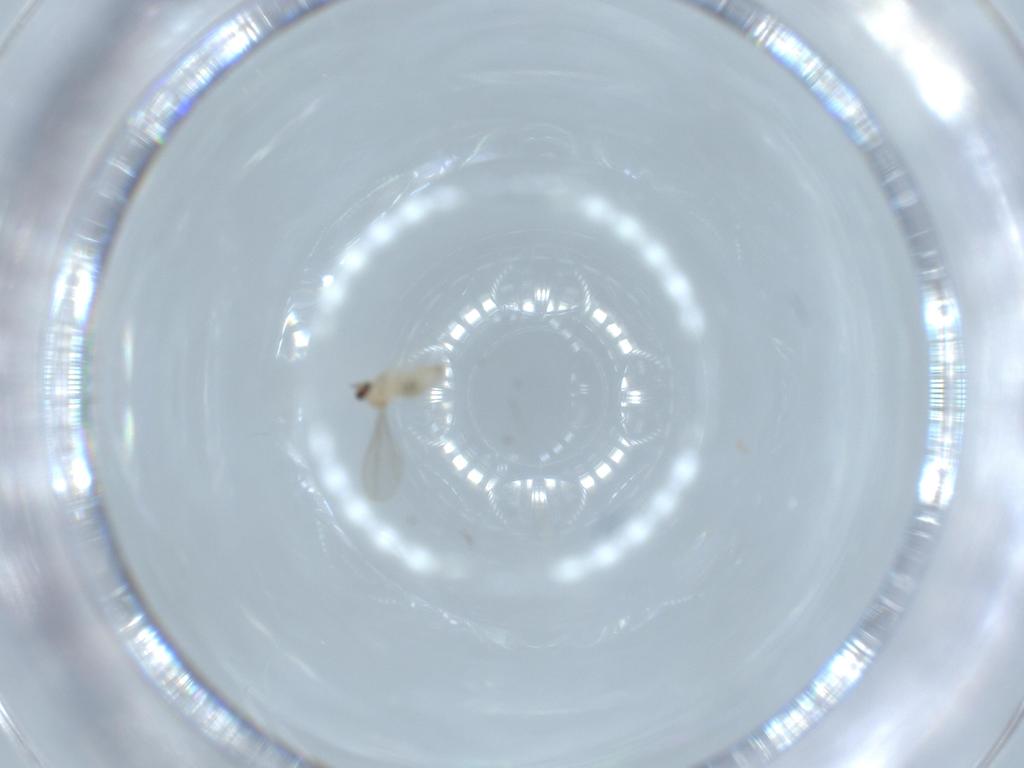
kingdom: Animalia
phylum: Arthropoda
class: Insecta
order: Diptera
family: Cecidomyiidae
